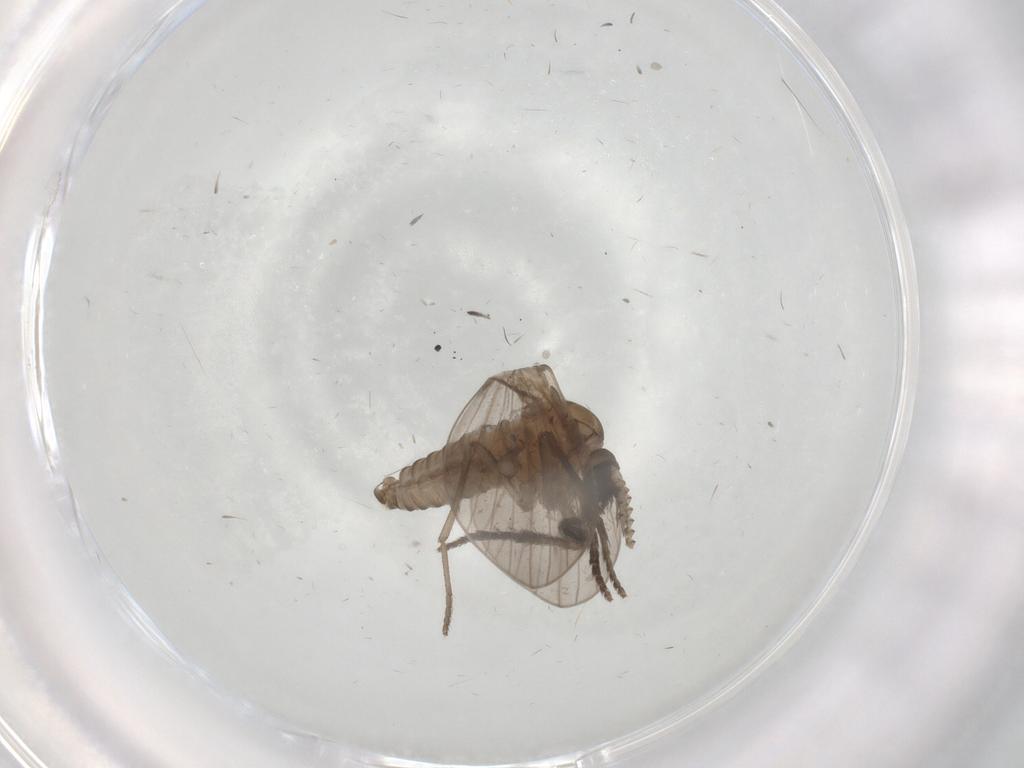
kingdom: Animalia
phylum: Arthropoda
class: Insecta
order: Diptera
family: Psychodidae
